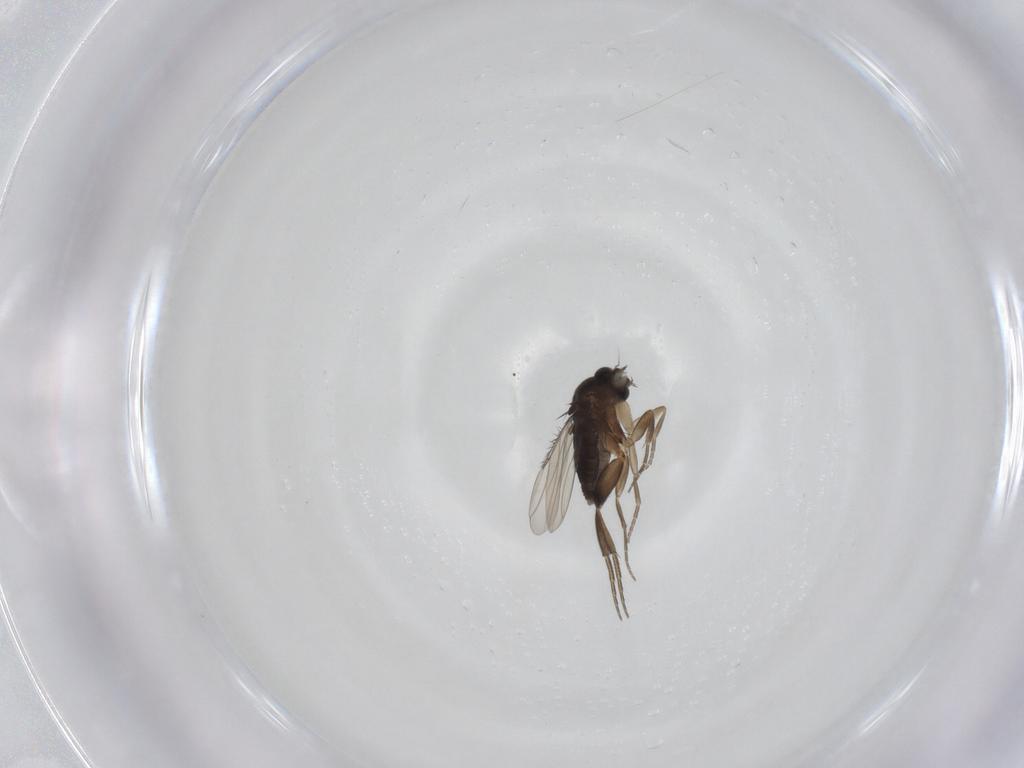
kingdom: Animalia
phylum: Arthropoda
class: Insecta
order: Diptera
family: Phoridae
